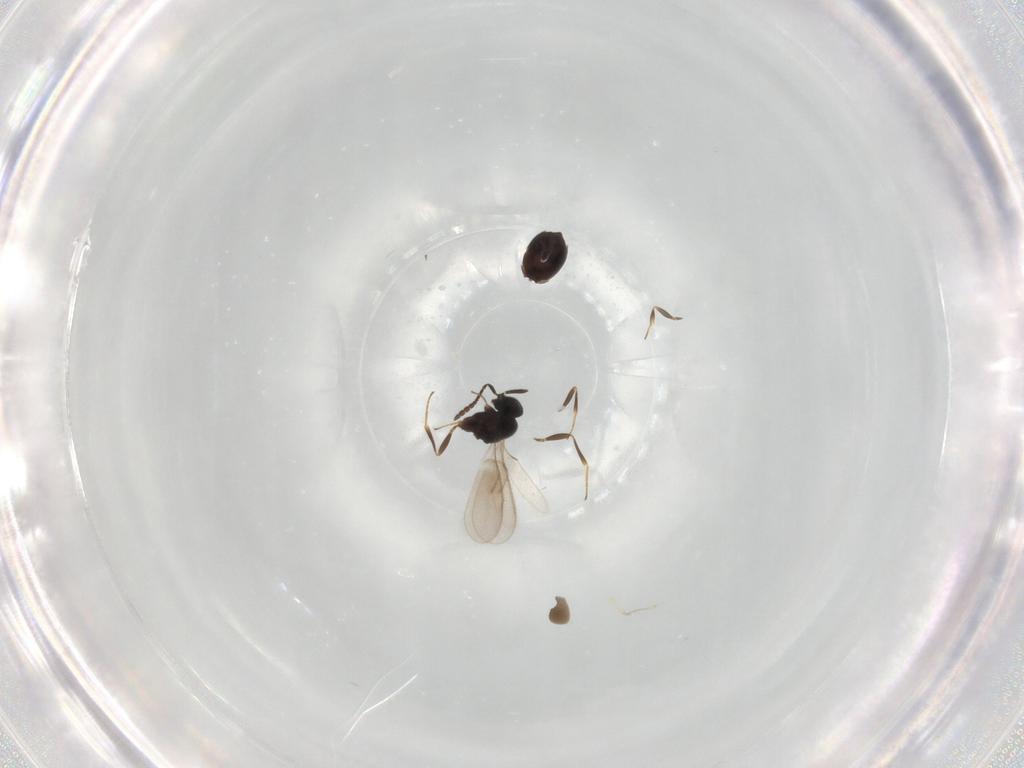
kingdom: Animalia
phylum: Arthropoda
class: Insecta
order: Hymenoptera
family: Scelionidae
